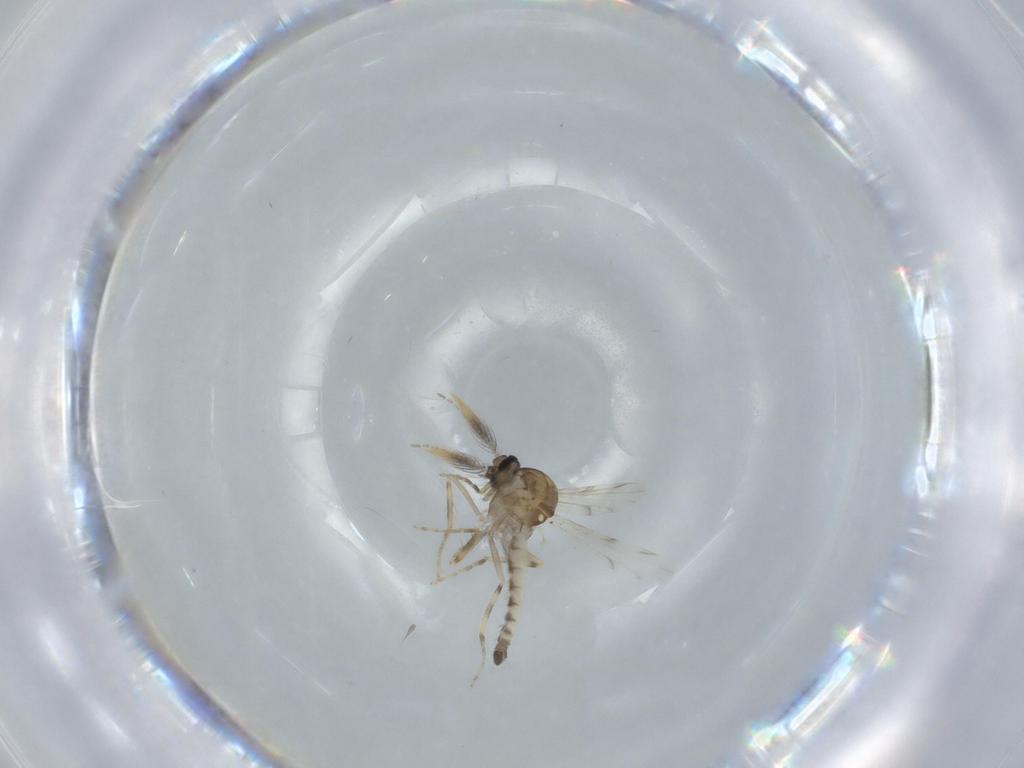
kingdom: Animalia
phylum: Arthropoda
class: Insecta
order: Diptera
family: Ceratopogonidae
